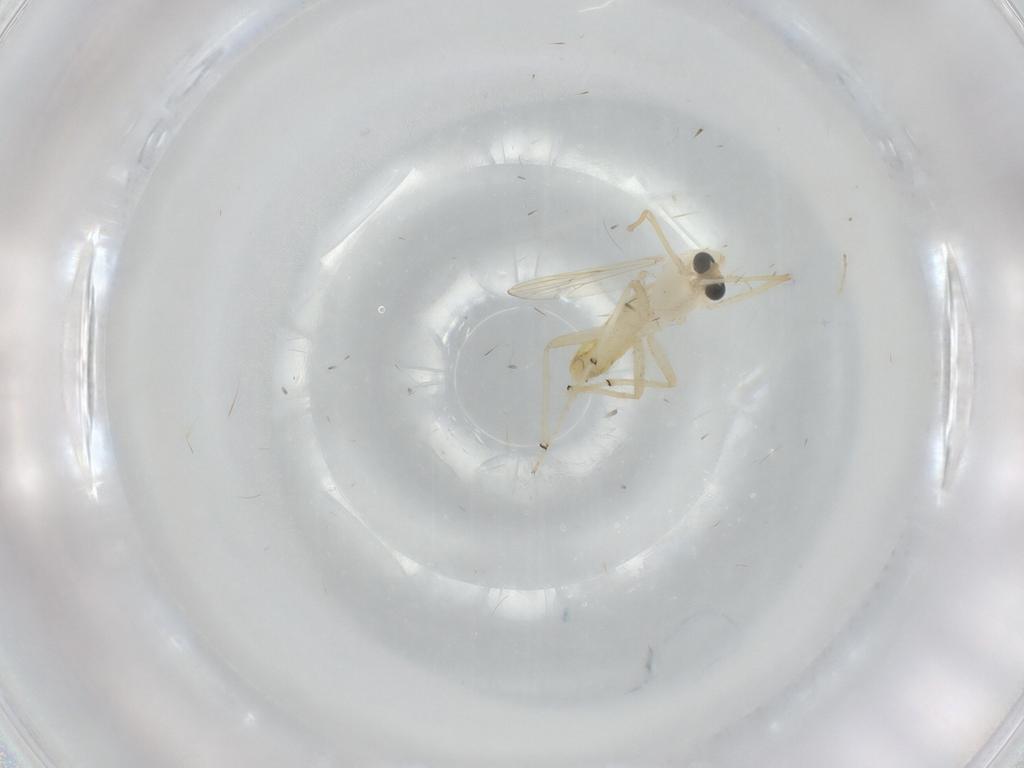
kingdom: Animalia
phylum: Arthropoda
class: Insecta
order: Diptera
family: Chironomidae
